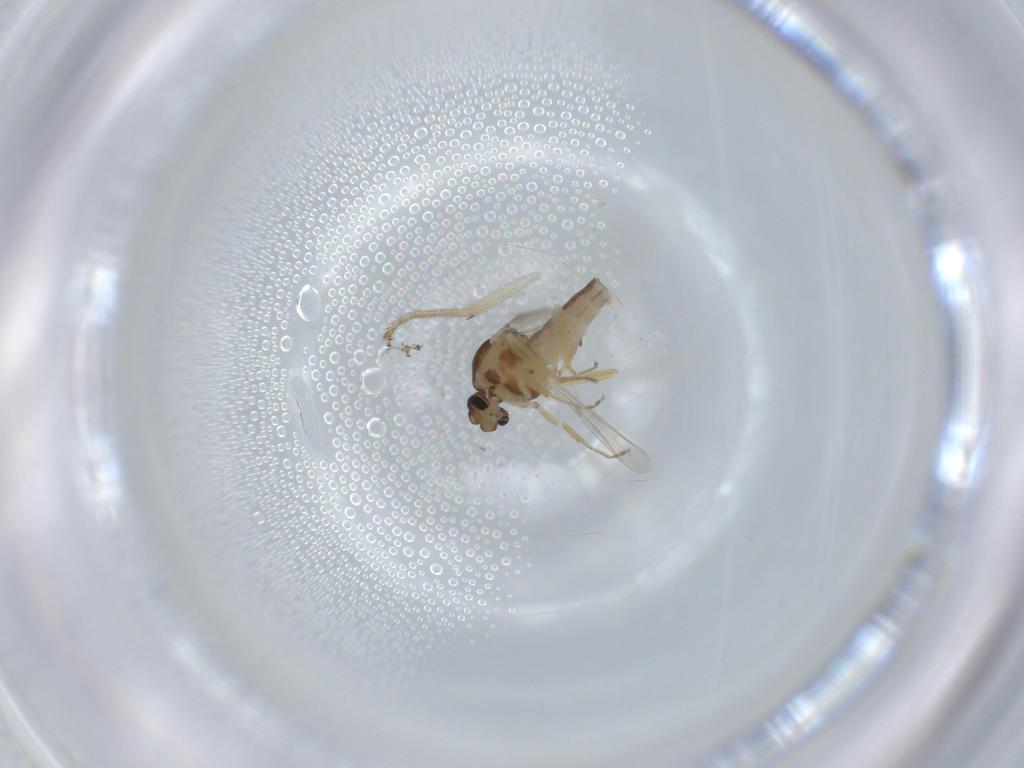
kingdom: Animalia
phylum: Arthropoda
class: Insecta
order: Diptera
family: Ceratopogonidae
